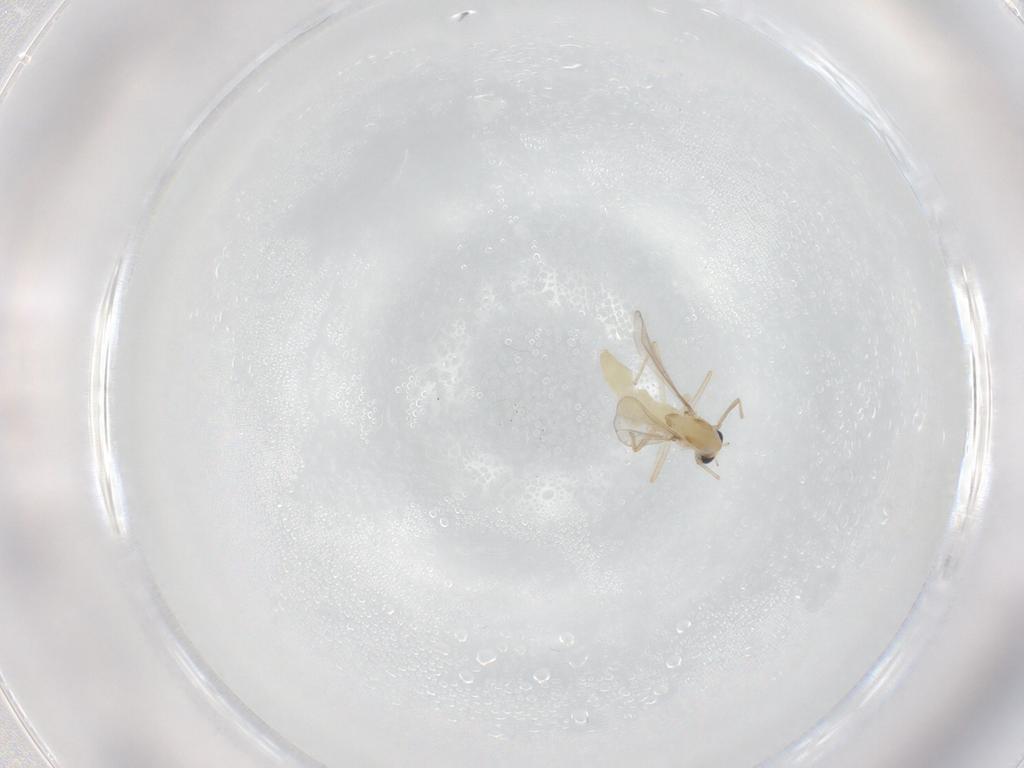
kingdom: Animalia
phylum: Arthropoda
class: Insecta
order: Diptera
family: Chironomidae
